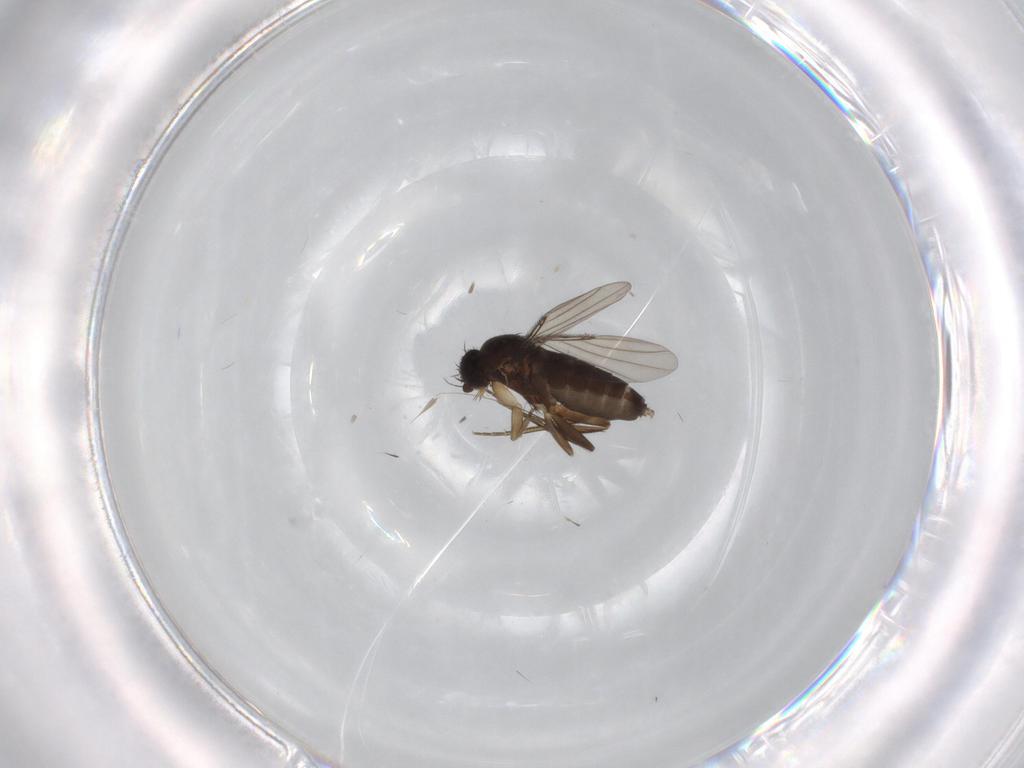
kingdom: Animalia
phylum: Arthropoda
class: Insecta
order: Diptera
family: Phoridae
